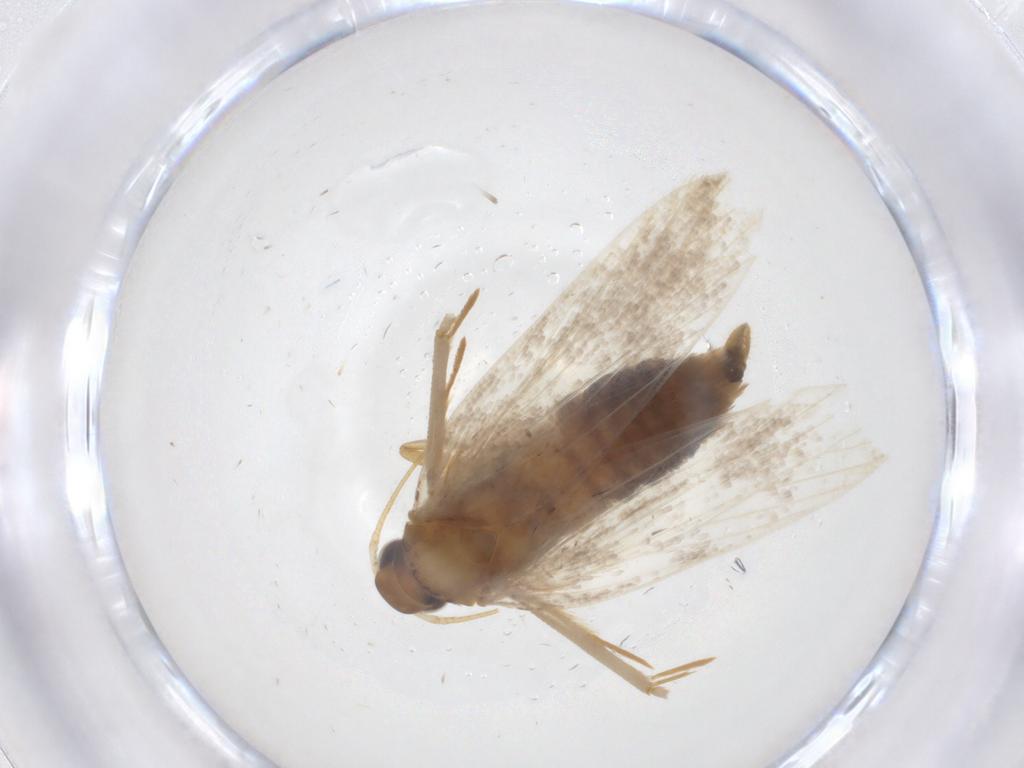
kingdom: Animalia
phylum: Arthropoda
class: Insecta
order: Lepidoptera
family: Oecophoridae
